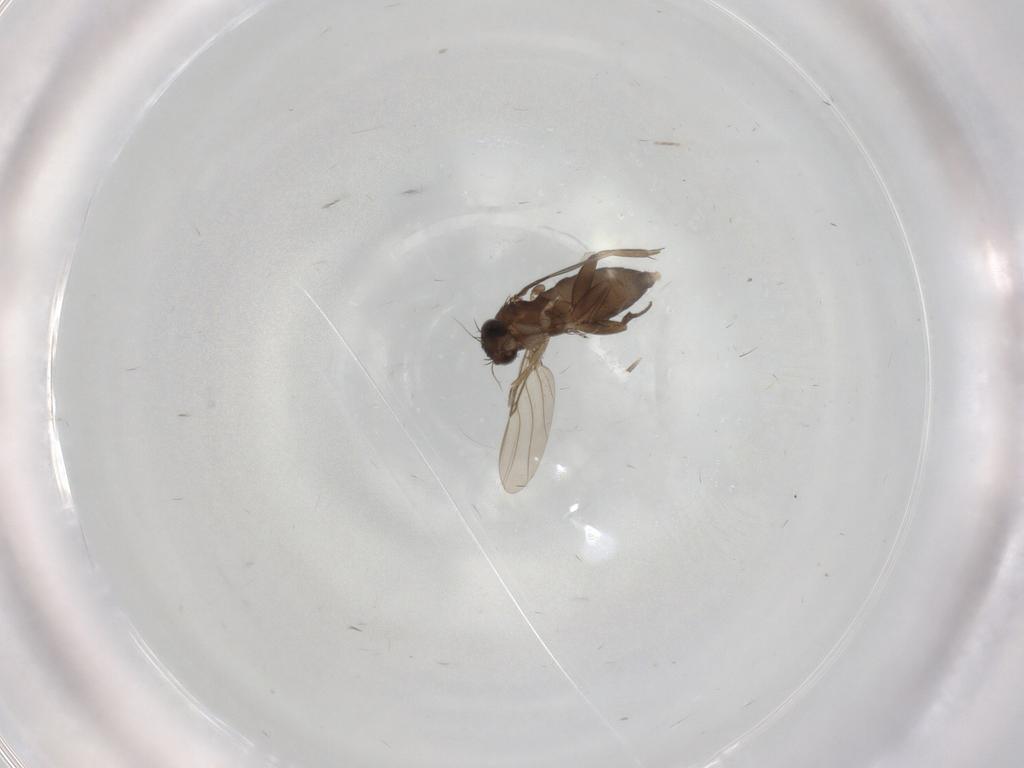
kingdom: Animalia
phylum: Arthropoda
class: Insecta
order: Diptera
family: Phoridae
